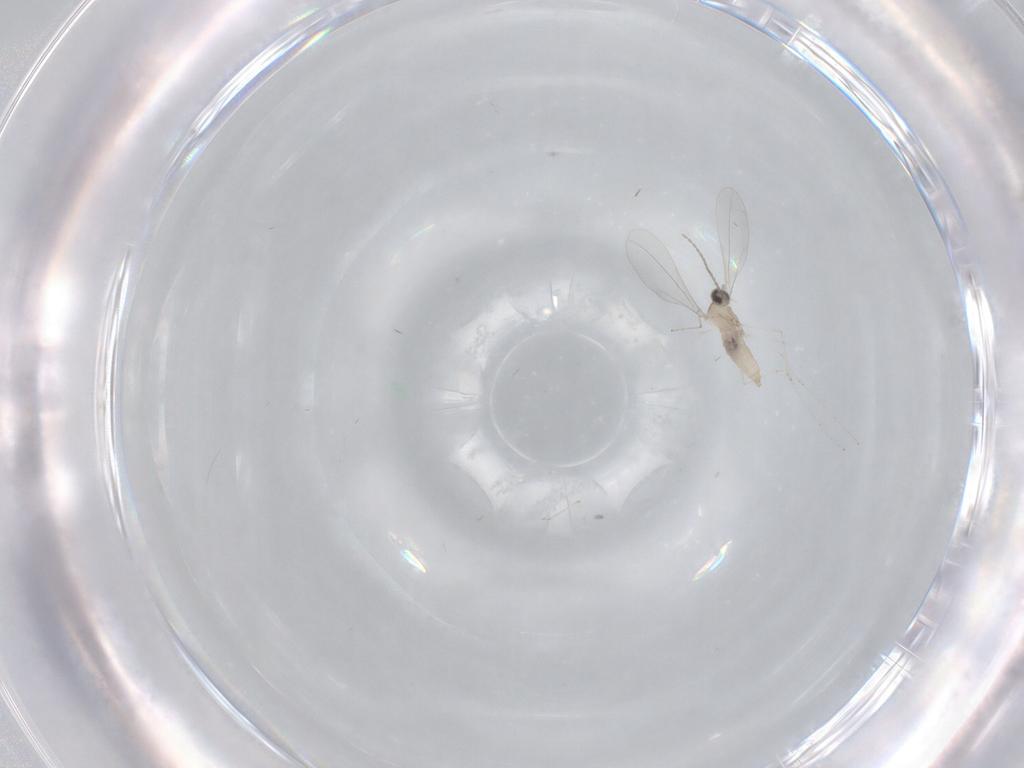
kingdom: Animalia
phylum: Arthropoda
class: Insecta
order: Diptera
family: Cecidomyiidae
